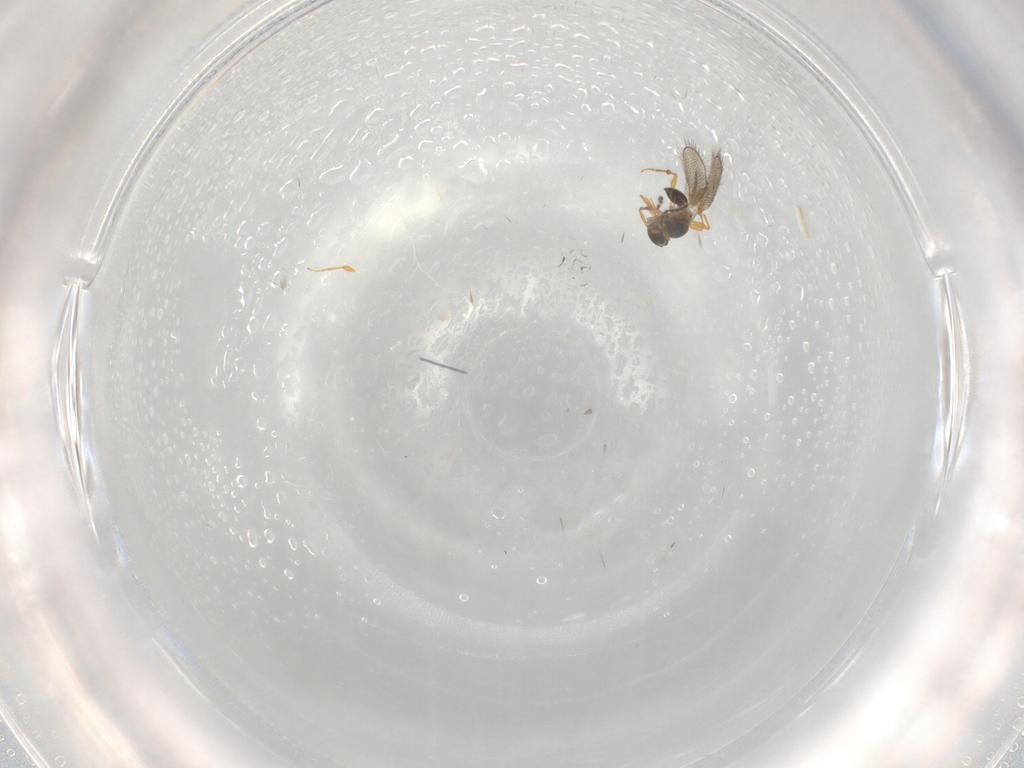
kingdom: Animalia
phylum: Arthropoda
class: Insecta
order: Hymenoptera
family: Platygastridae
